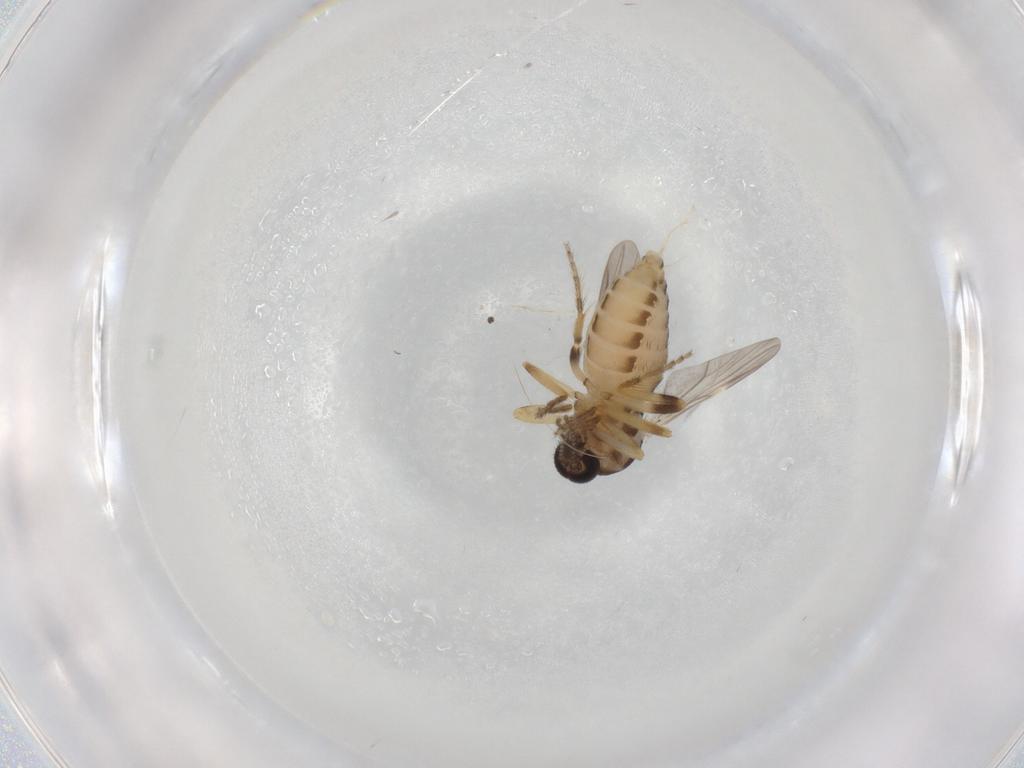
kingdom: Animalia
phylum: Arthropoda
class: Insecta
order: Diptera
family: Ceratopogonidae
